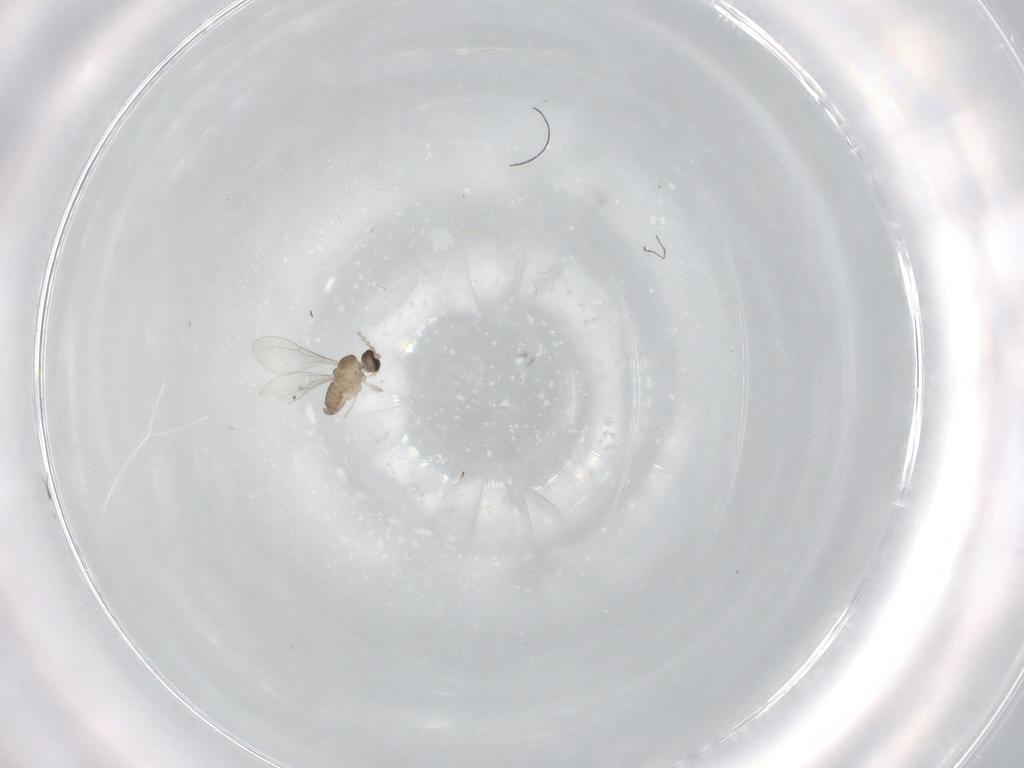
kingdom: Animalia
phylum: Arthropoda
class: Insecta
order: Diptera
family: Cecidomyiidae
